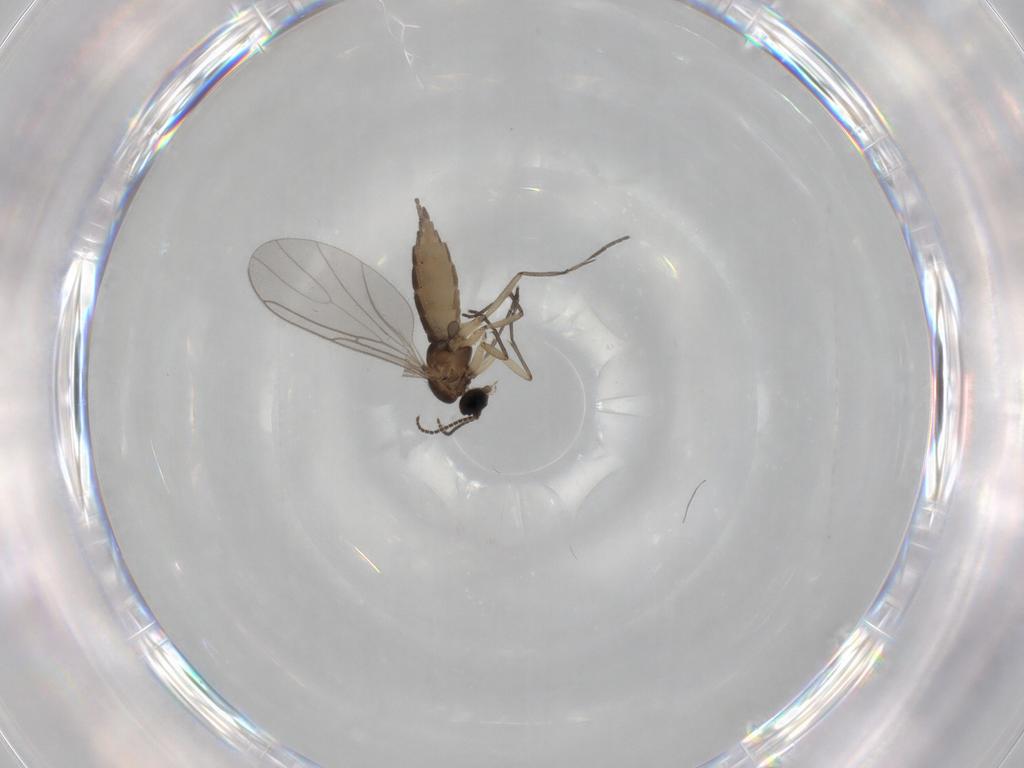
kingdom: Animalia
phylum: Arthropoda
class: Insecta
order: Diptera
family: Sciaridae
